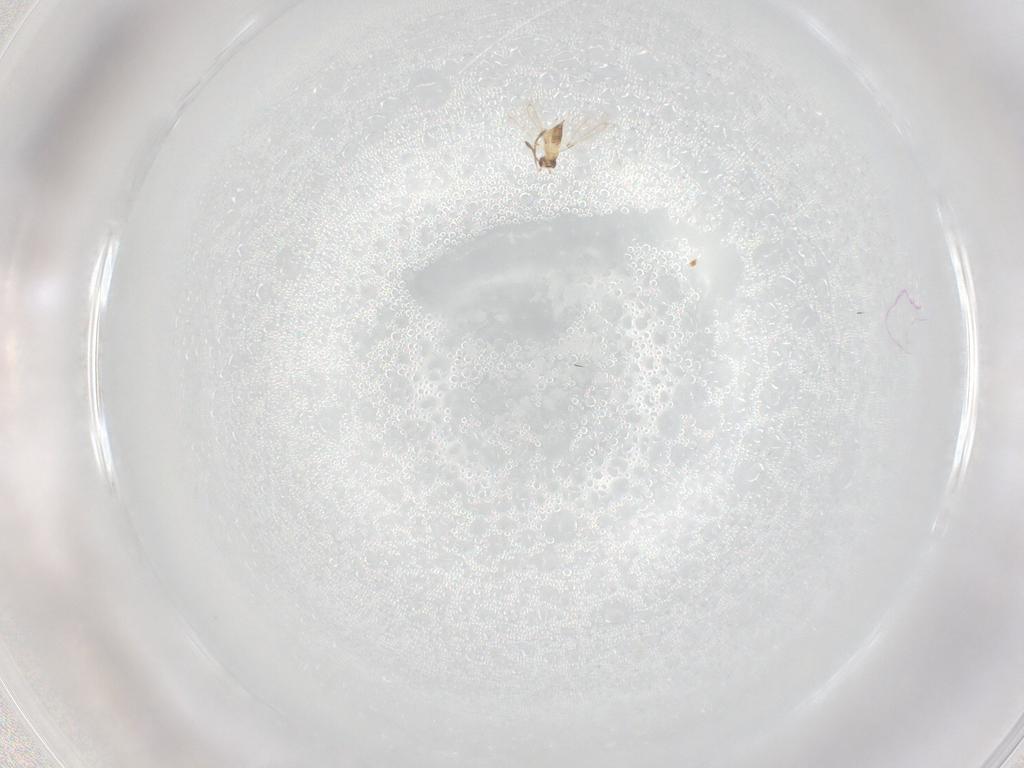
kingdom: Animalia
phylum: Arthropoda
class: Insecta
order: Hymenoptera
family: Mymaridae
